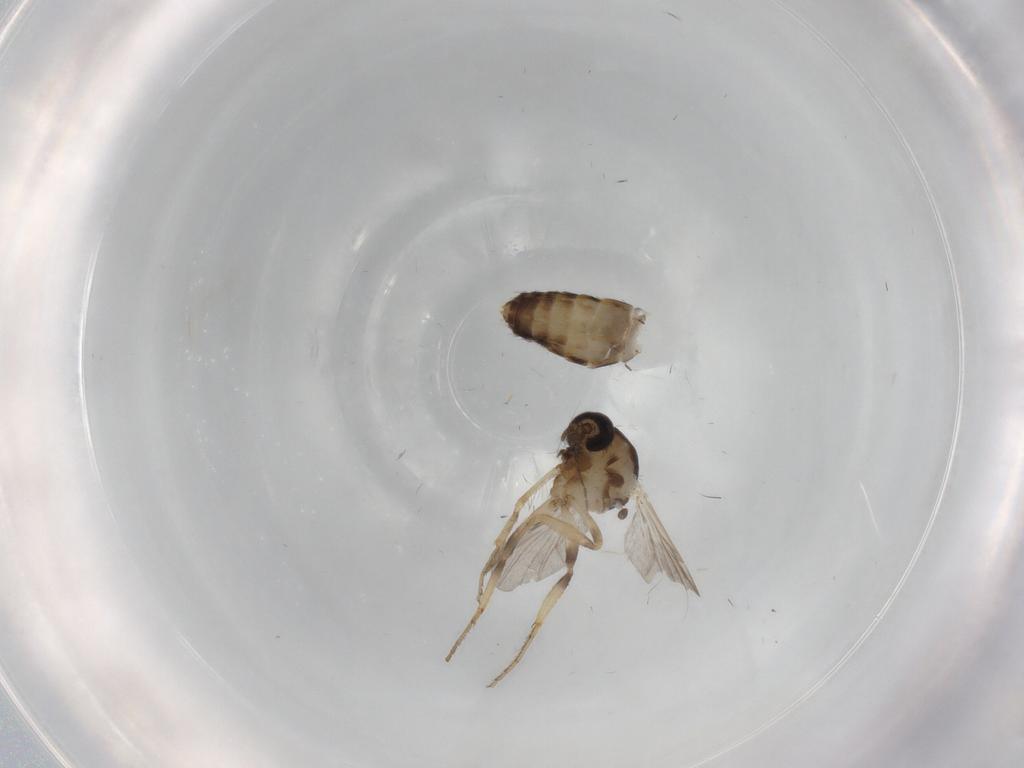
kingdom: Animalia
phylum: Arthropoda
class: Insecta
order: Diptera
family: Ceratopogonidae
